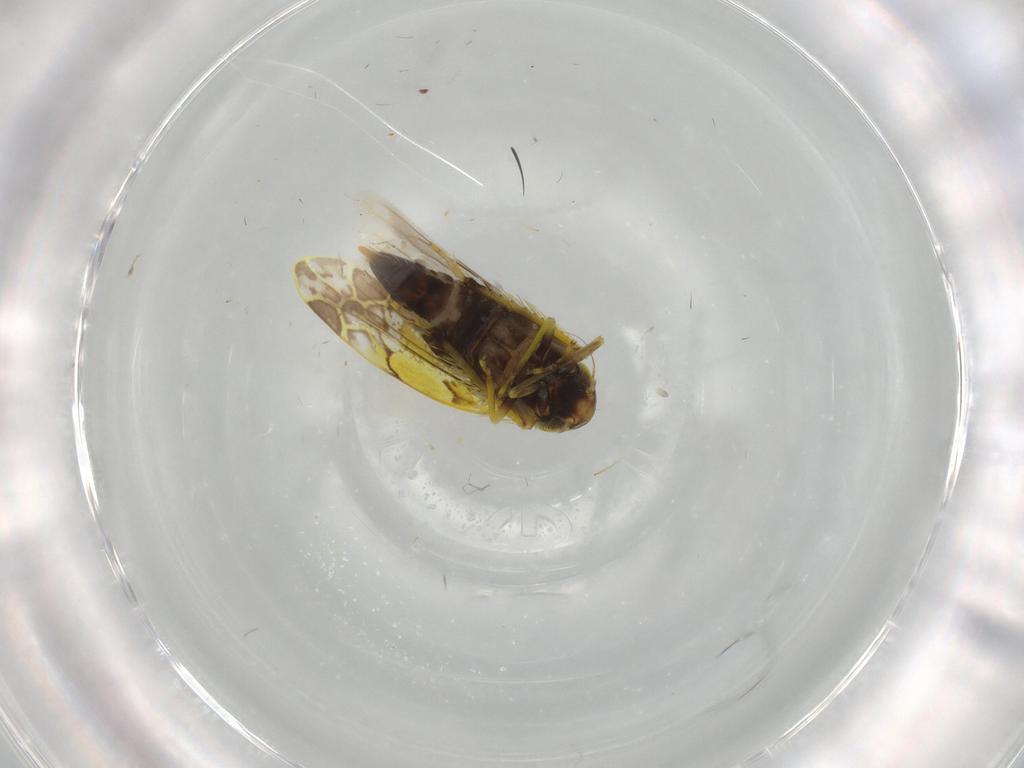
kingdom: Animalia
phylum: Arthropoda
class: Insecta
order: Hemiptera
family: Cicadellidae
